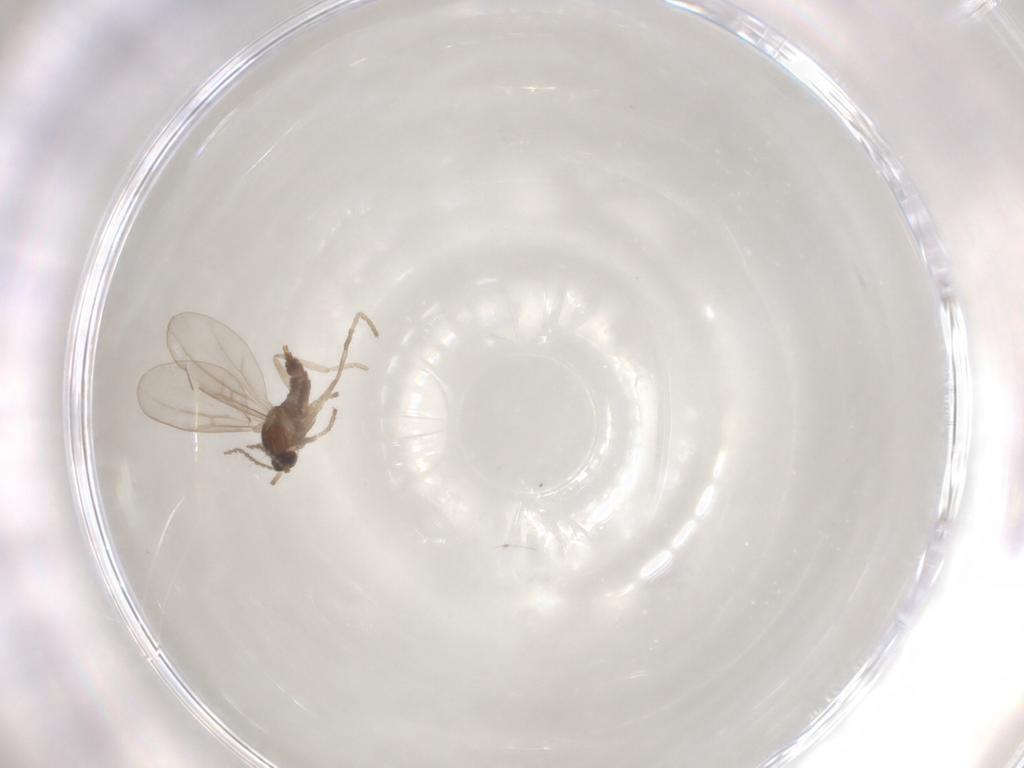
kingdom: Animalia
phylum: Arthropoda
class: Insecta
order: Diptera
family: Cecidomyiidae
